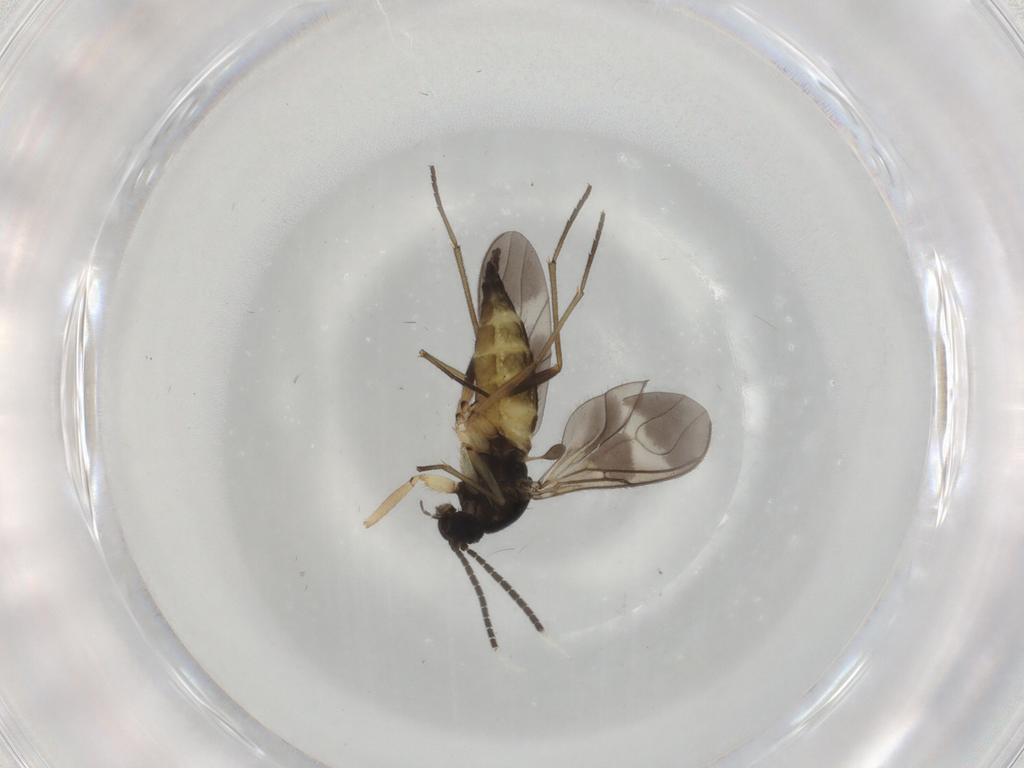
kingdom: Animalia
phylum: Arthropoda
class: Insecta
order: Diptera
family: Sciaridae
